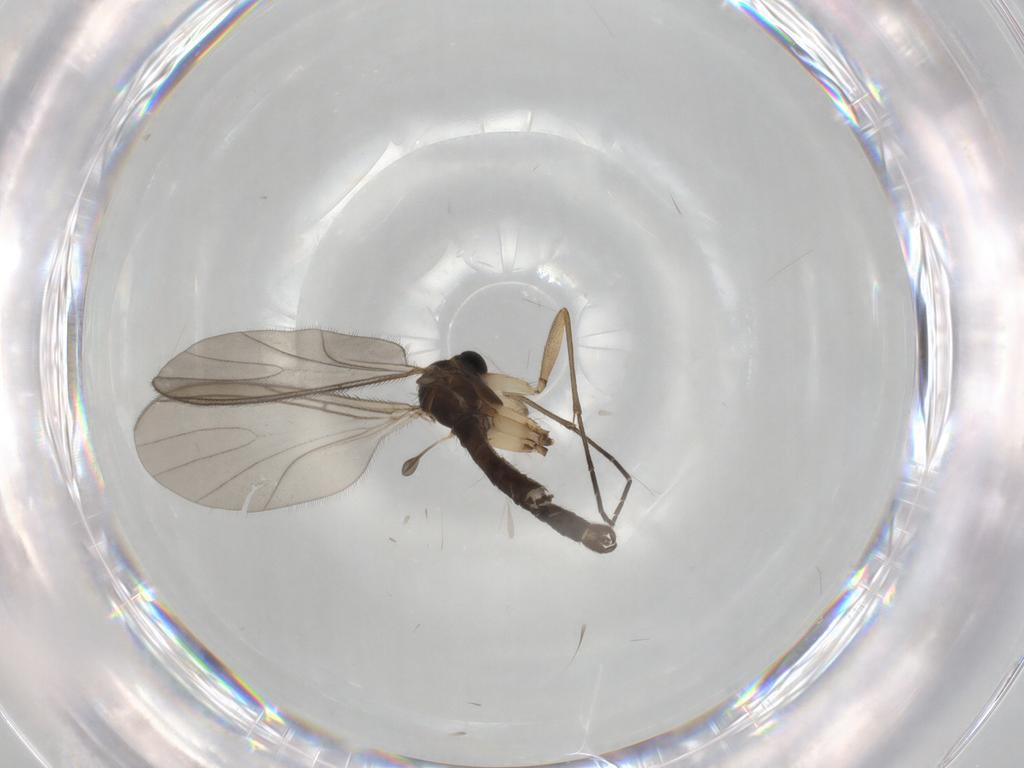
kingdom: Animalia
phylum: Arthropoda
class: Insecta
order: Diptera
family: Sciaridae
